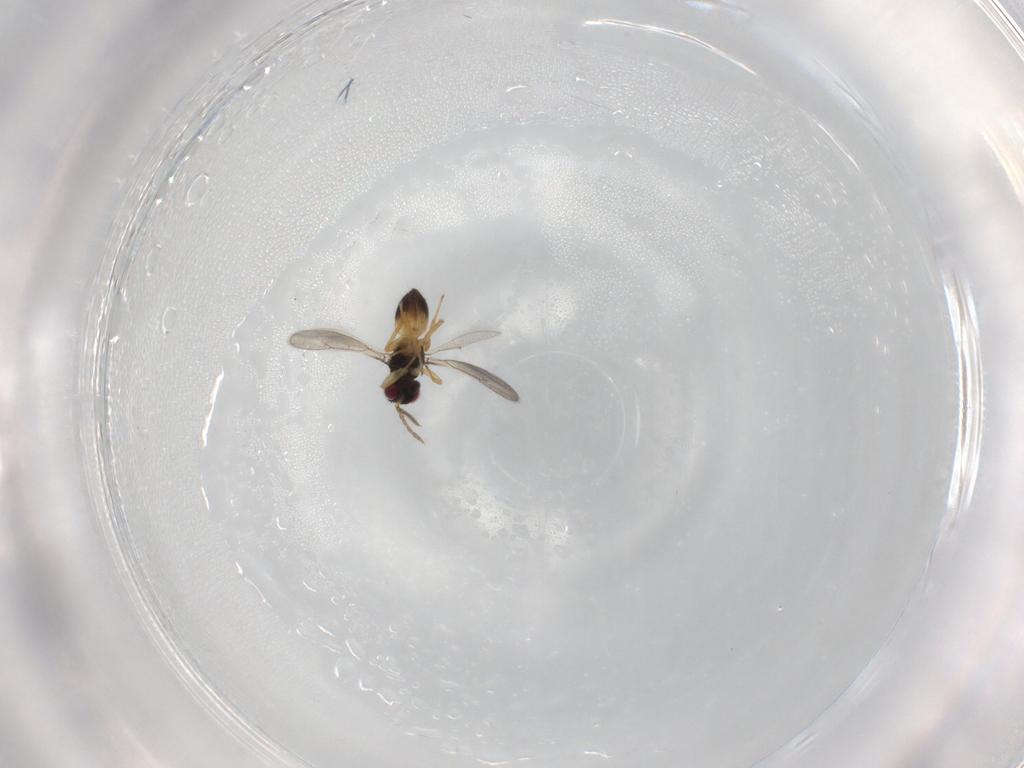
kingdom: Animalia
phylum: Arthropoda
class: Insecta
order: Hymenoptera
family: Eulophidae
